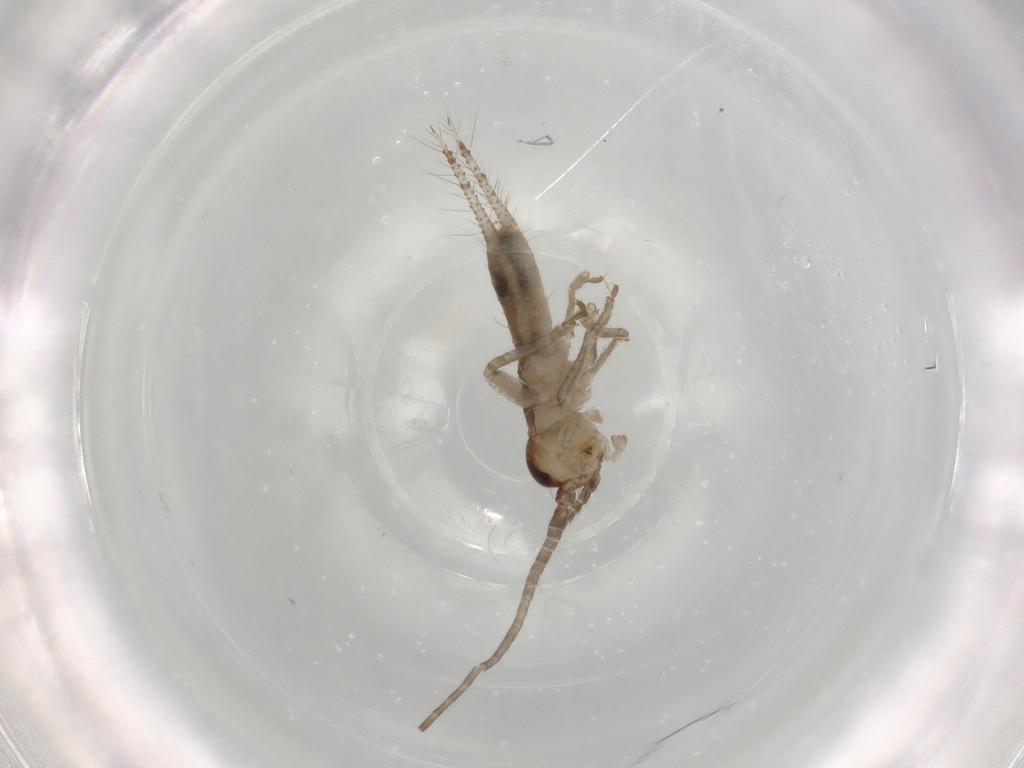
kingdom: Animalia
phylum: Arthropoda
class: Insecta
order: Orthoptera
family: Gryllidae
